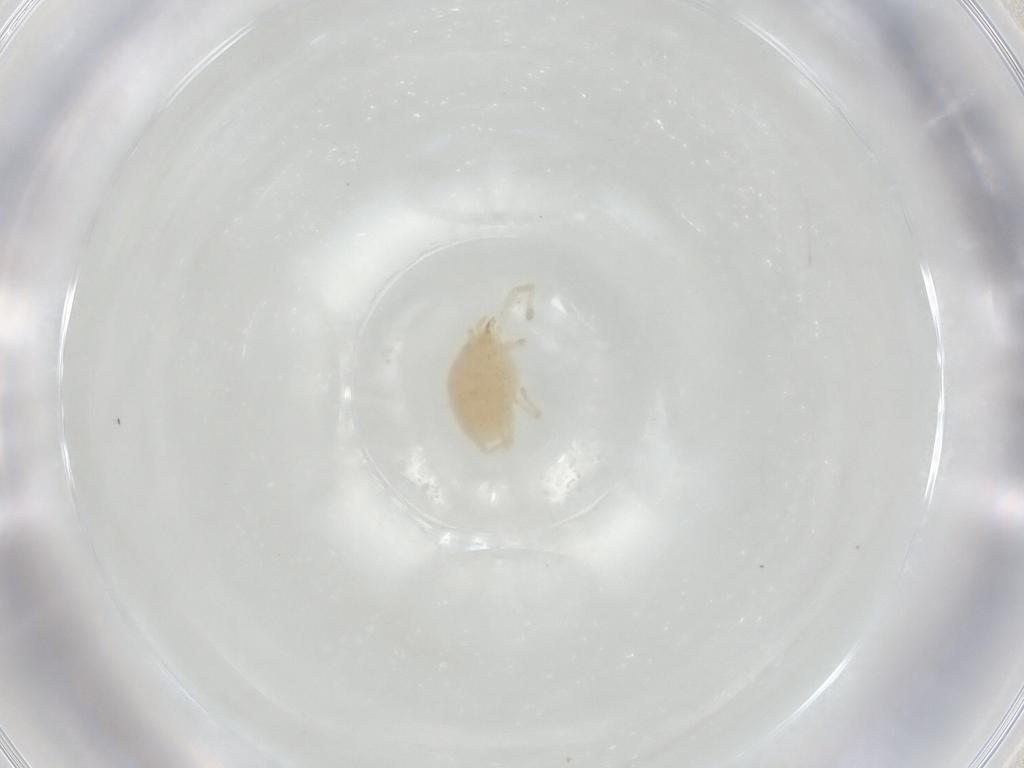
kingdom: Animalia
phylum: Arthropoda
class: Arachnida
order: Trombidiformes
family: Erythraeidae
